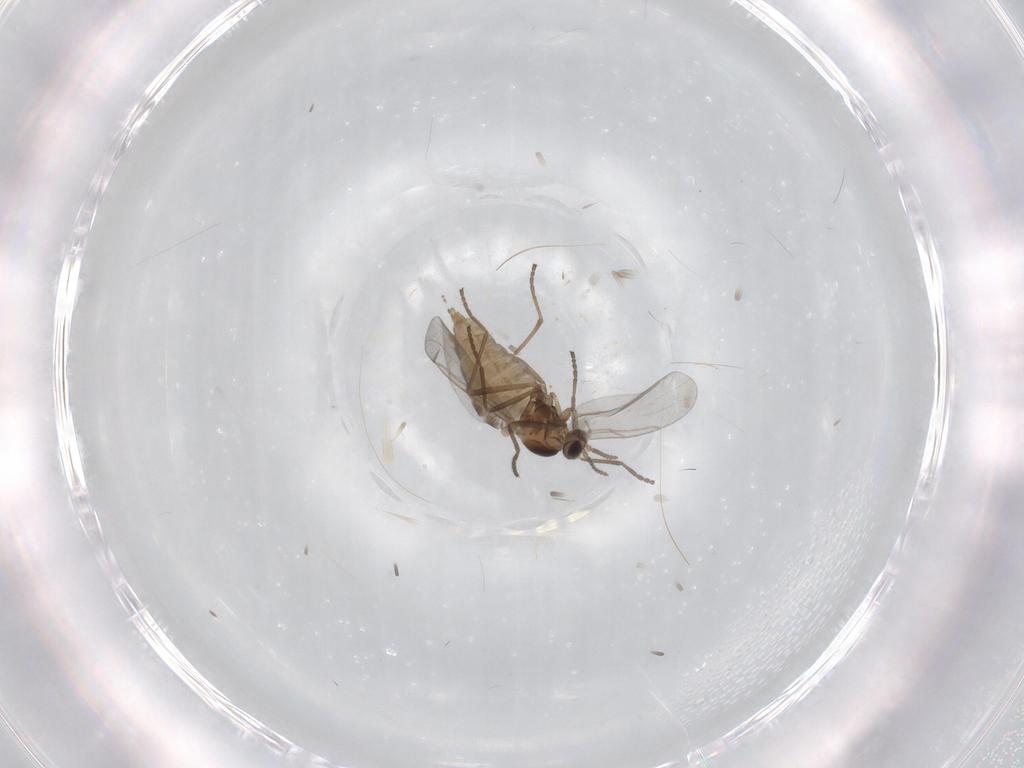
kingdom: Animalia
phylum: Arthropoda
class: Insecta
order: Diptera
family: Cecidomyiidae
